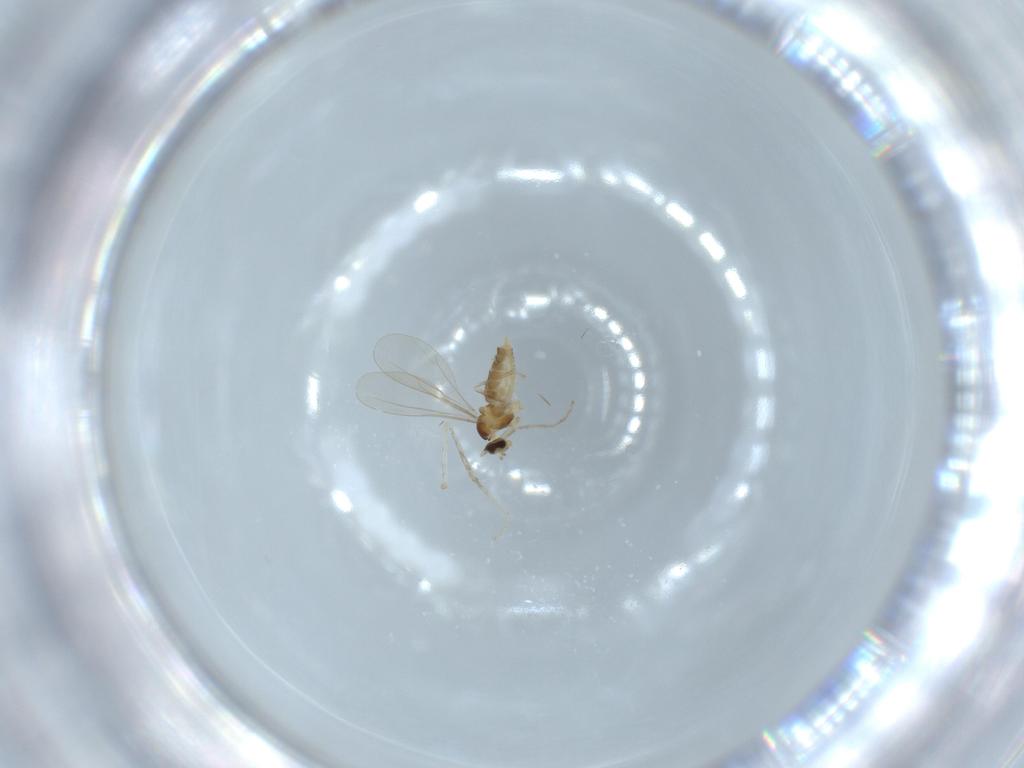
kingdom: Animalia
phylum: Arthropoda
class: Insecta
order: Diptera
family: Cecidomyiidae
